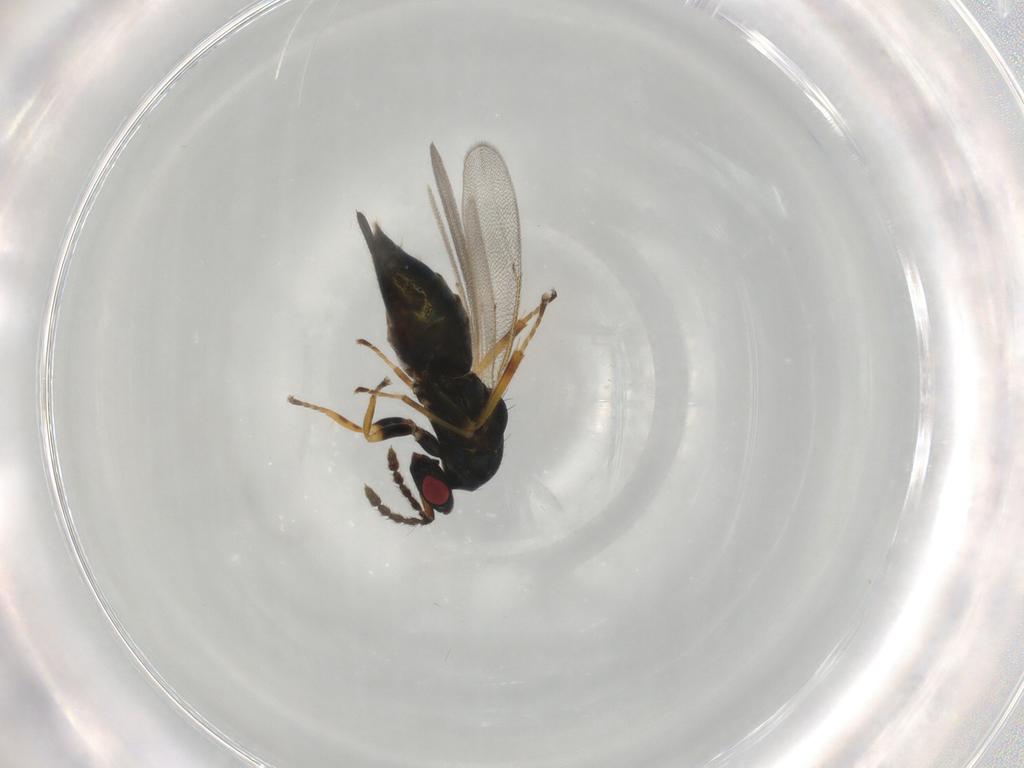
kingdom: Animalia
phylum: Arthropoda
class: Insecta
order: Hymenoptera
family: Eulophidae
